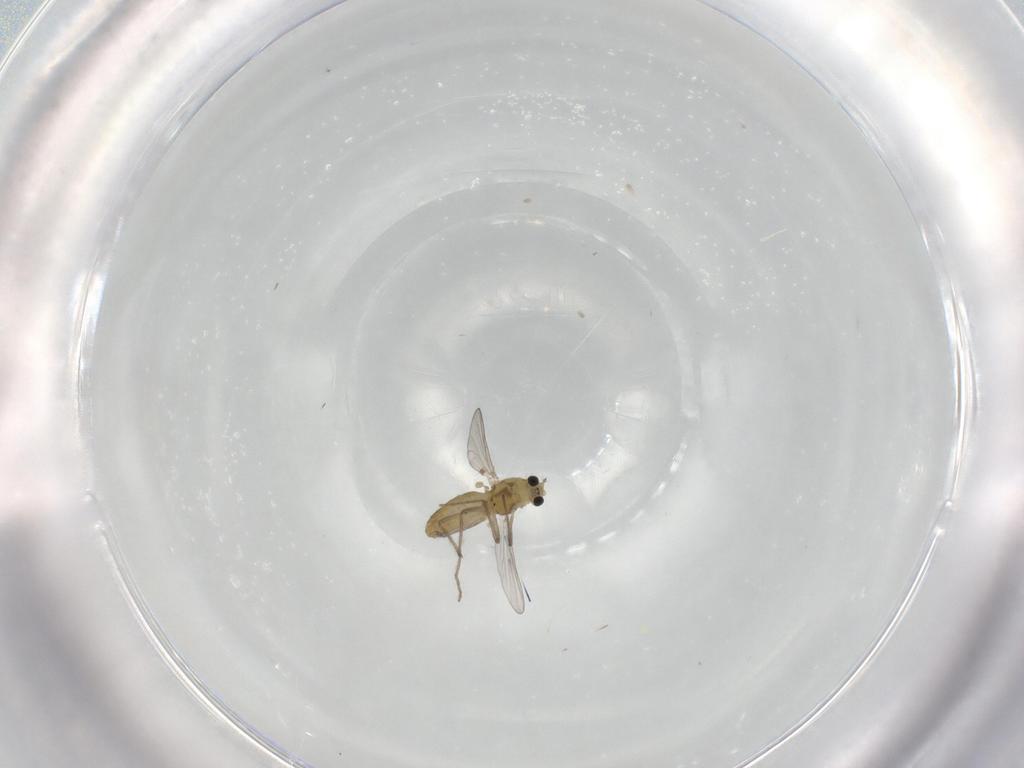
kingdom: Animalia
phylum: Arthropoda
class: Insecta
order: Diptera
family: Chironomidae
